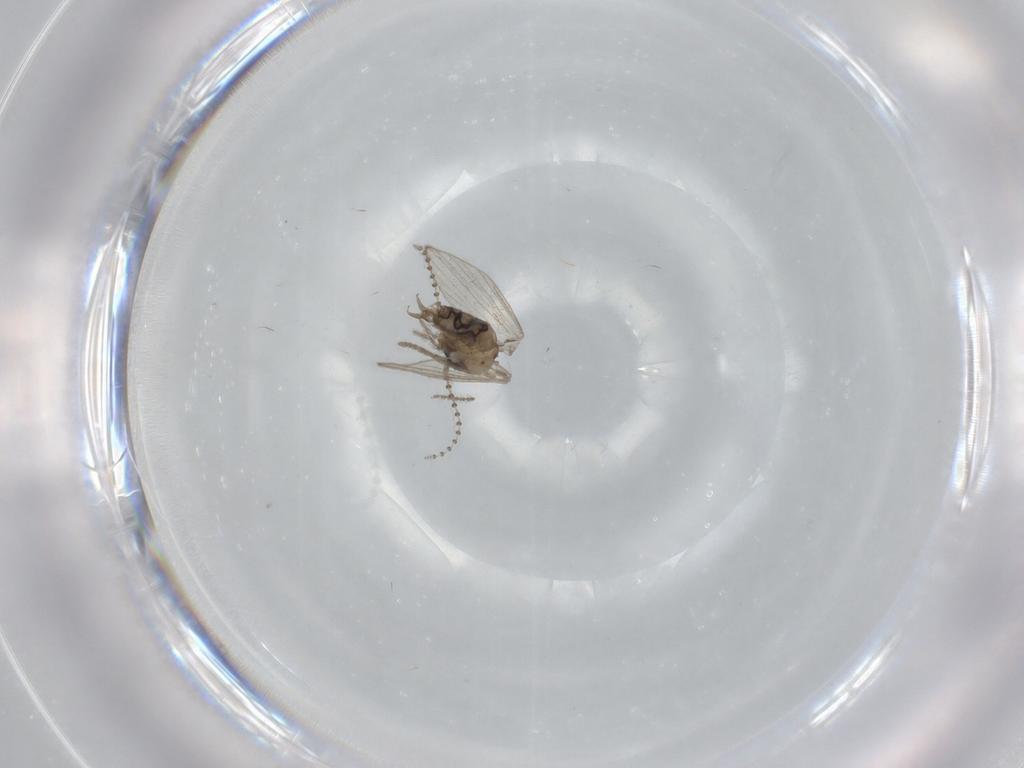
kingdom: Animalia
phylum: Arthropoda
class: Insecta
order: Diptera
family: Psychodidae
